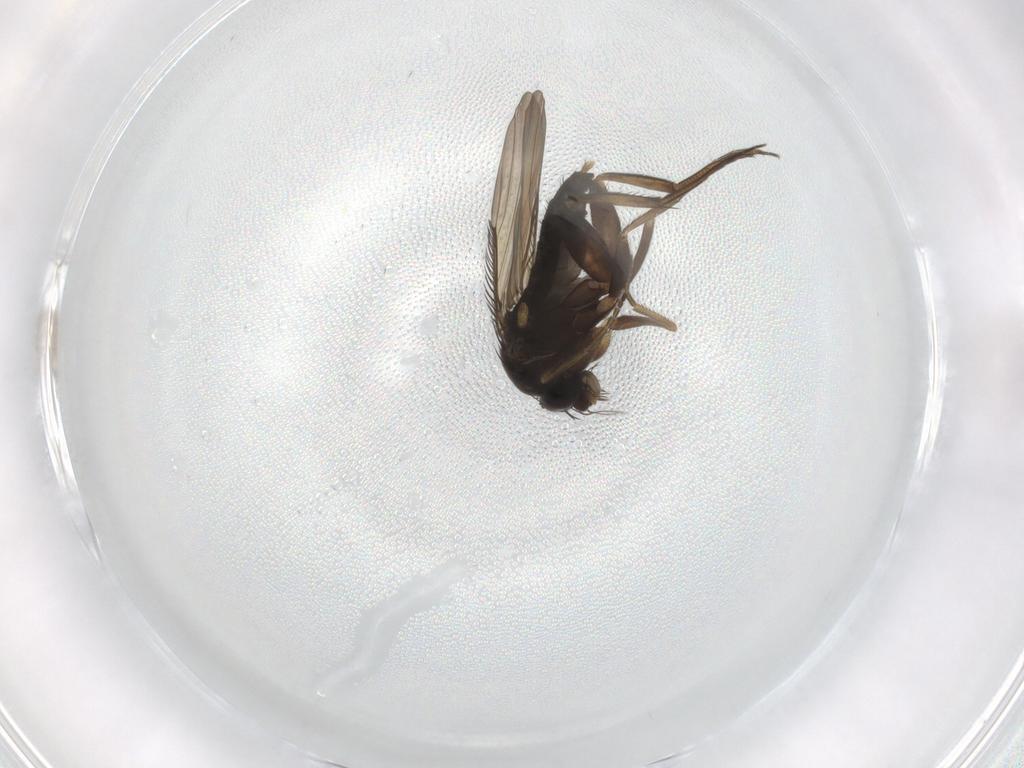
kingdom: Animalia
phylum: Arthropoda
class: Insecta
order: Diptera
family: Phoridae
